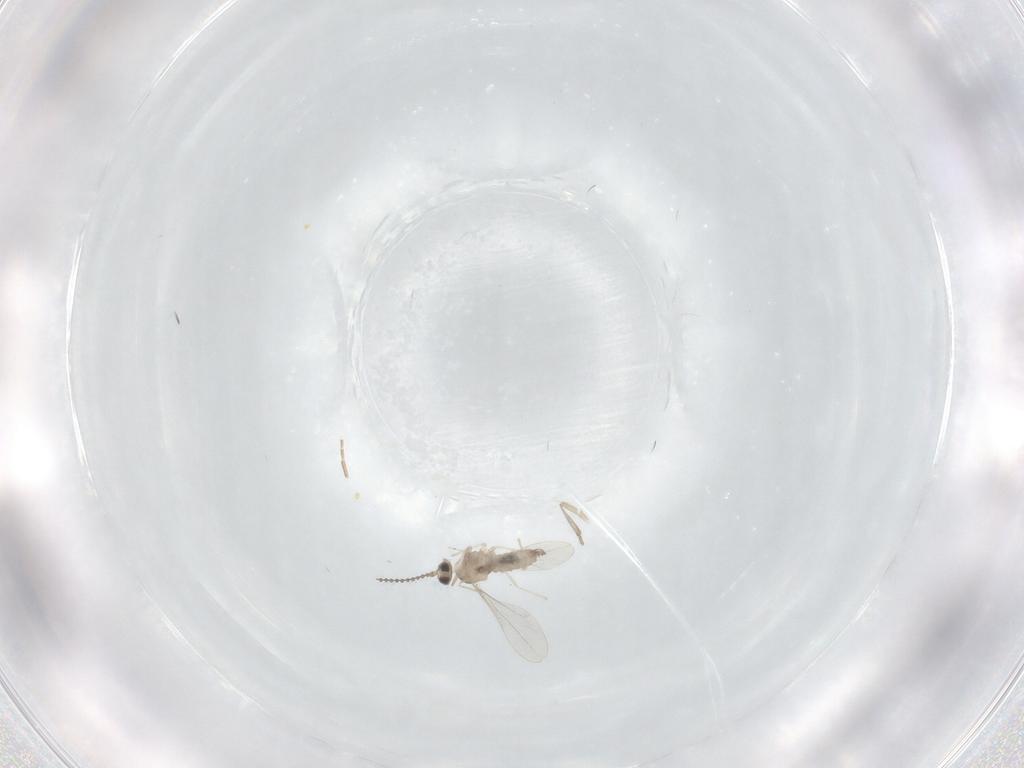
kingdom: Animalia
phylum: Arthropoda
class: Insecta
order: Diptera
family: Cecidomyiidae
